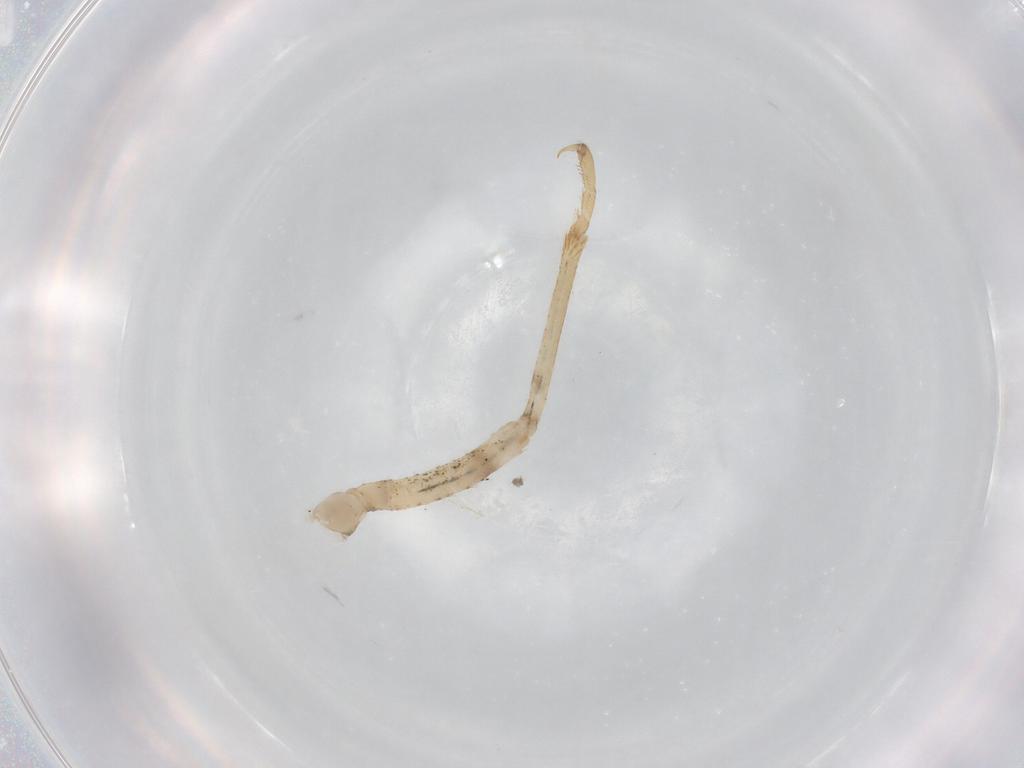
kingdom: Animalia
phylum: Arthropoda
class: Insecta
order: Odonata
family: Coenagrionidae
